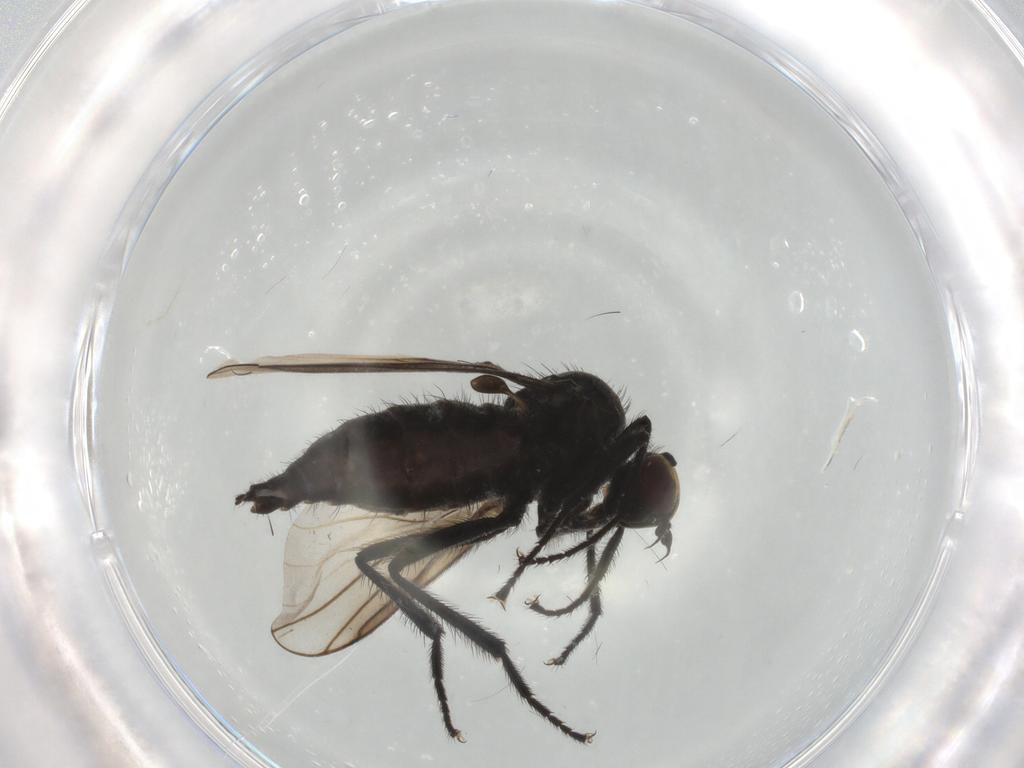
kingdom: Animalia
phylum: Arthropoda
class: Insecta
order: Diptera
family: Hybotidae
